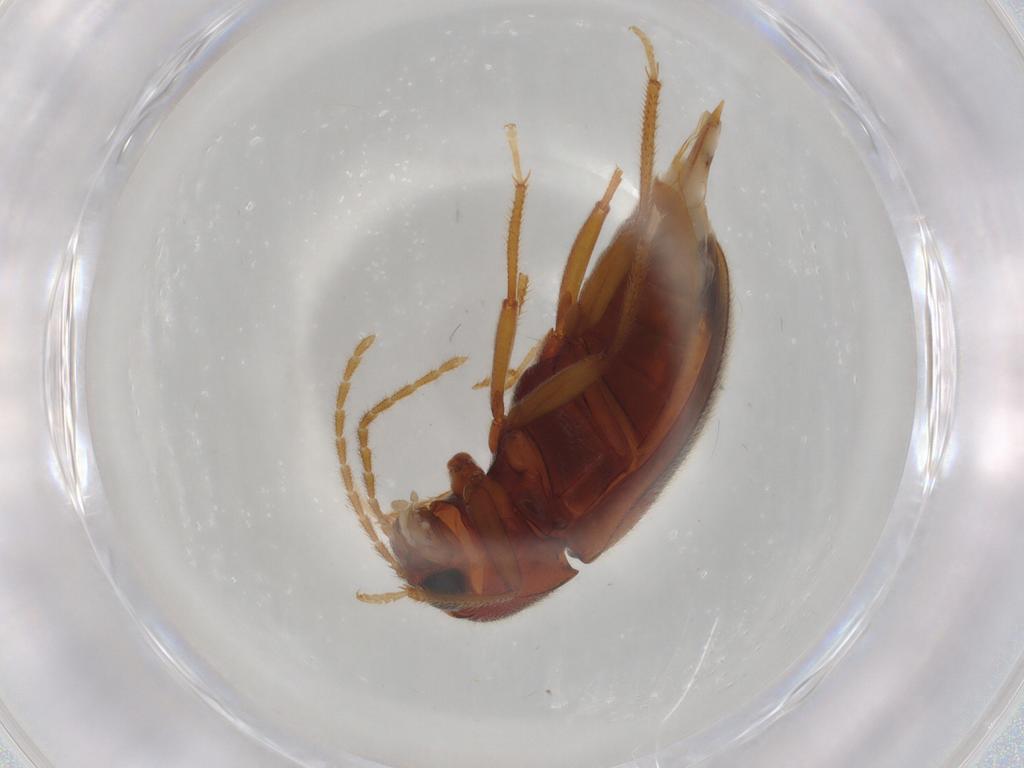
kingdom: Animalia
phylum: Arthropoda
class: Insecta
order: Coleoptera
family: Ptilodactylidae
